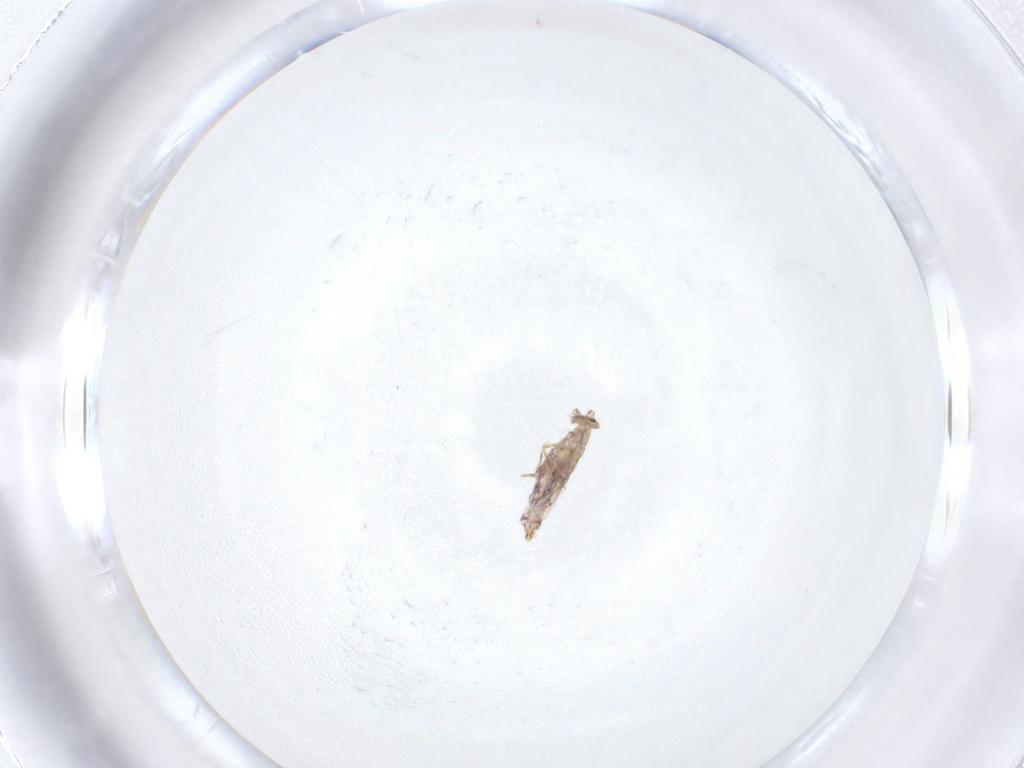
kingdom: Animalia
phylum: Arthropoda
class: Collembola
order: Entomobryomorpha
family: Entomobryidae
